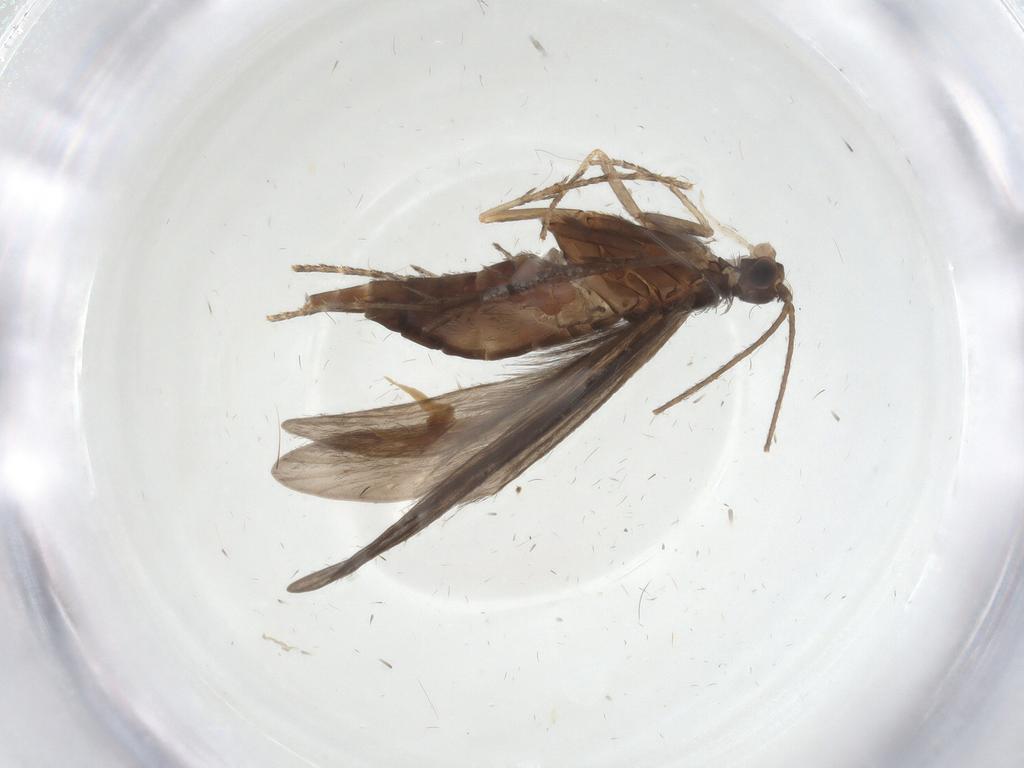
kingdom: Animalia
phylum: Arthropoda
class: Insecta
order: Trichoptera
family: Xiphocentronidae
